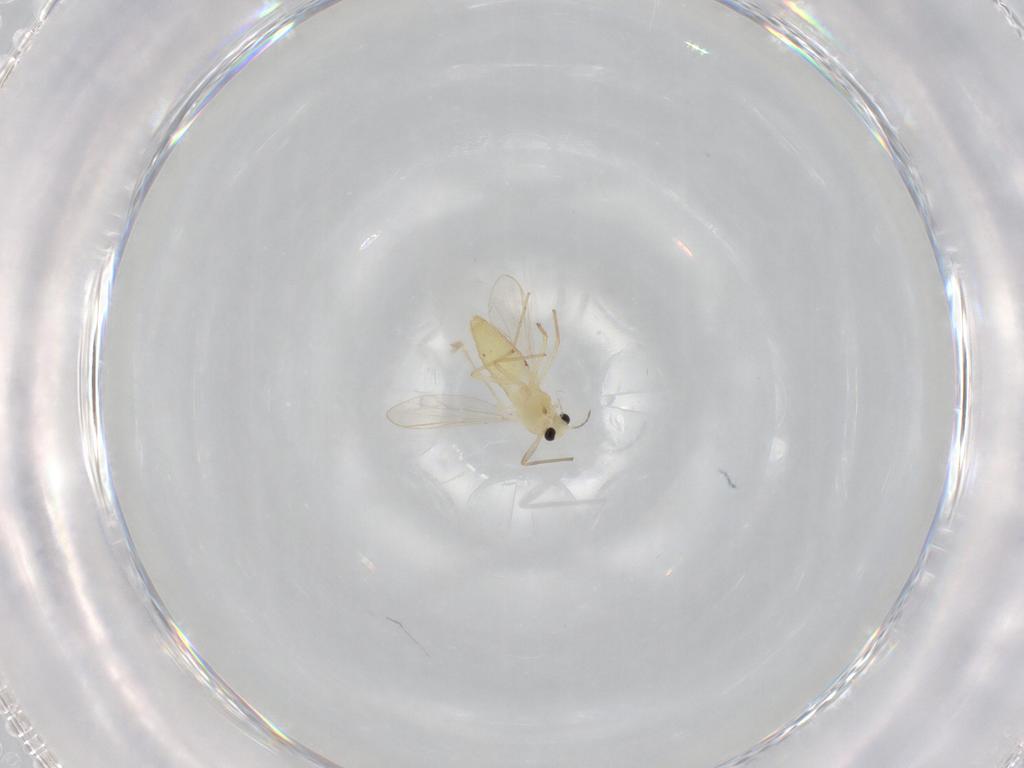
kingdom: Animalia
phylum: Arthropoda
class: Insecta
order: Diptera
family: Chironomidae
